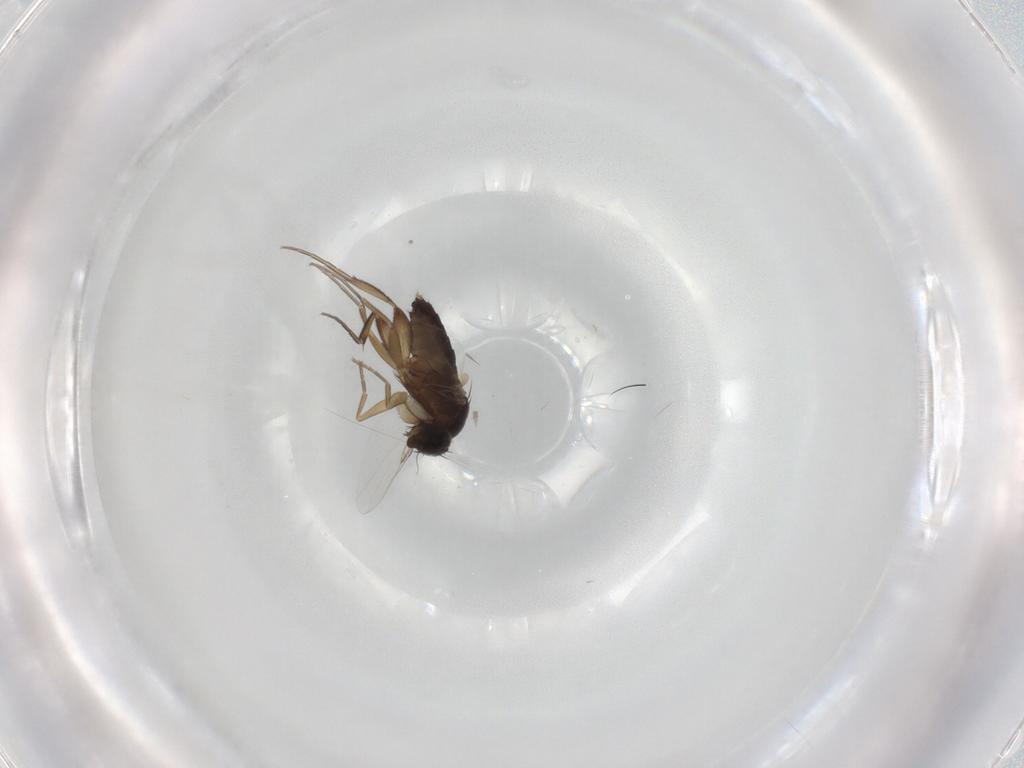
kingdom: Animalia
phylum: Arthropoda
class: Insecta
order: Diptera
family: Phoridae
